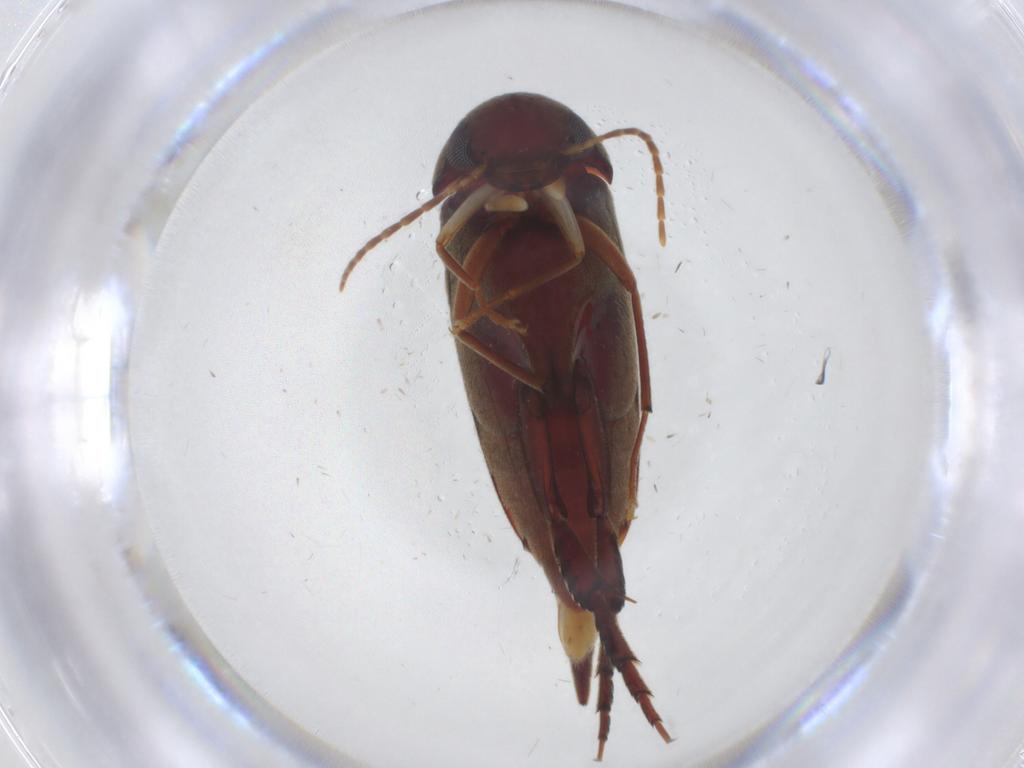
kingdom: Animalia
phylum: Arthropoda
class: Insecta
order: Coleoptera
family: Mordellidae
